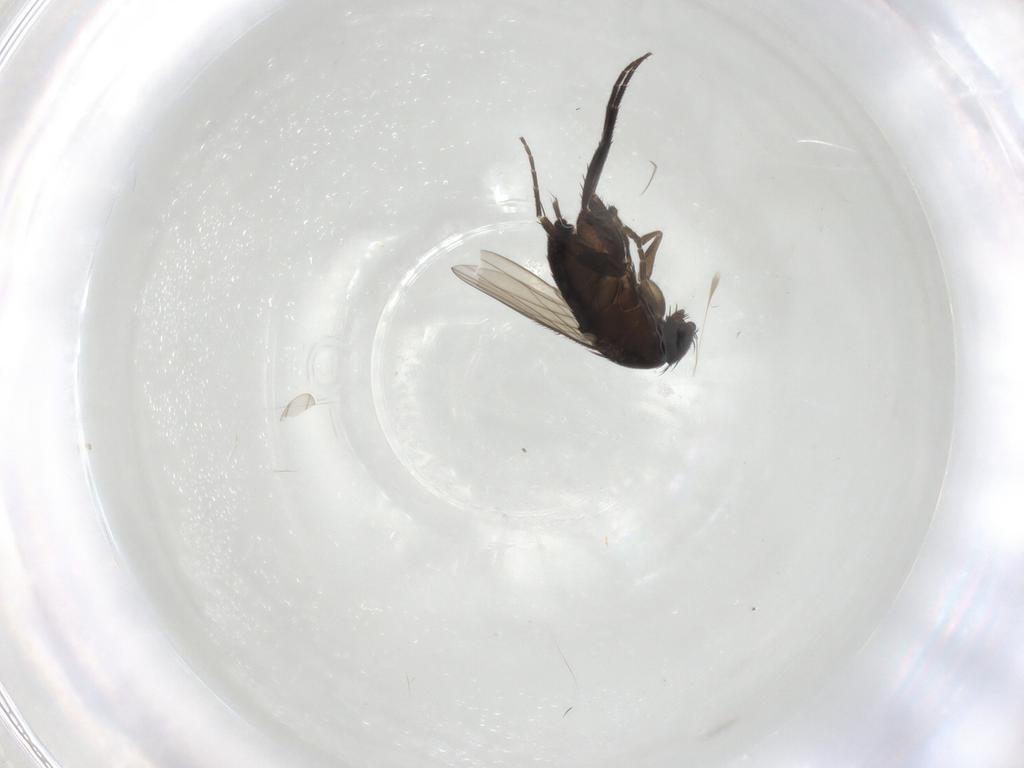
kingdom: Animalia
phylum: Arthropoda
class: Insecta
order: Diptera
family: Phoridae
